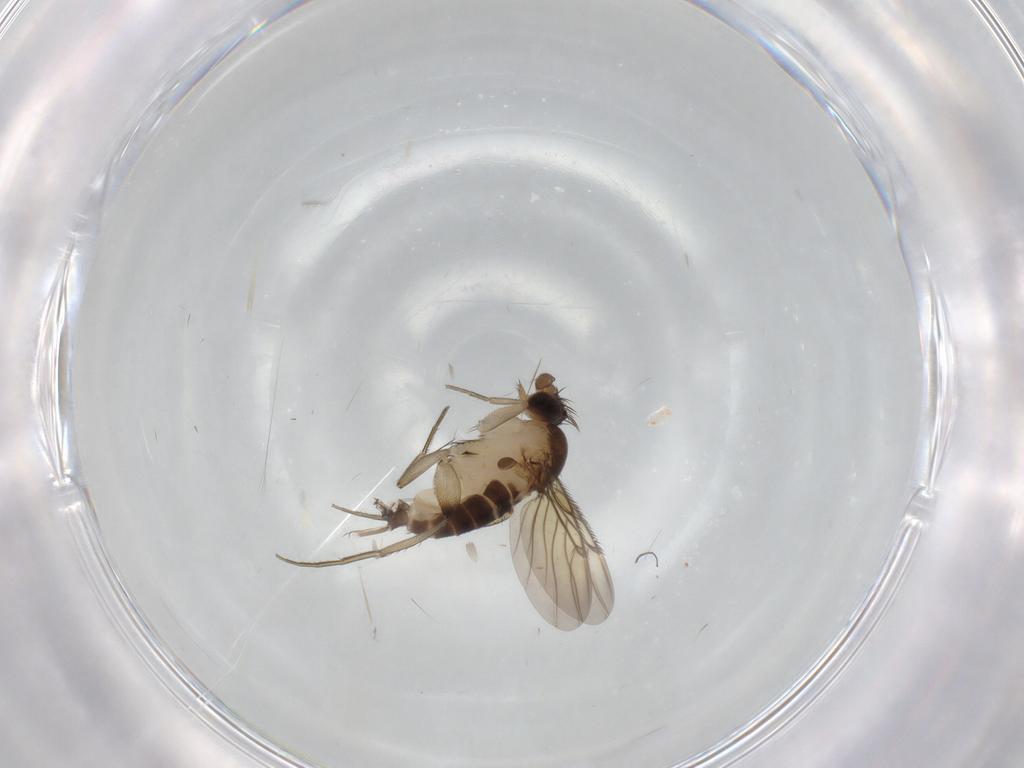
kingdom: Animalia
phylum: Arthropoda
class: Insecta
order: Diptera
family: Phoridae
